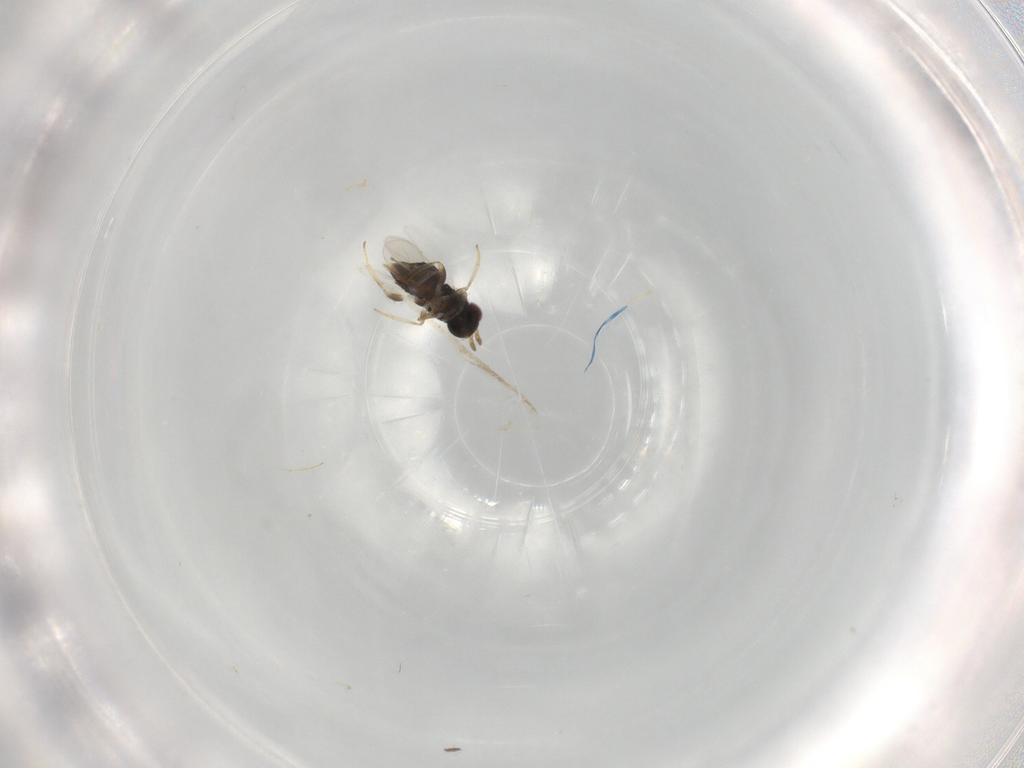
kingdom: Animalia
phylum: Arthropoda
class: Insecta
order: Hymenoptera
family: Aphelinidae
